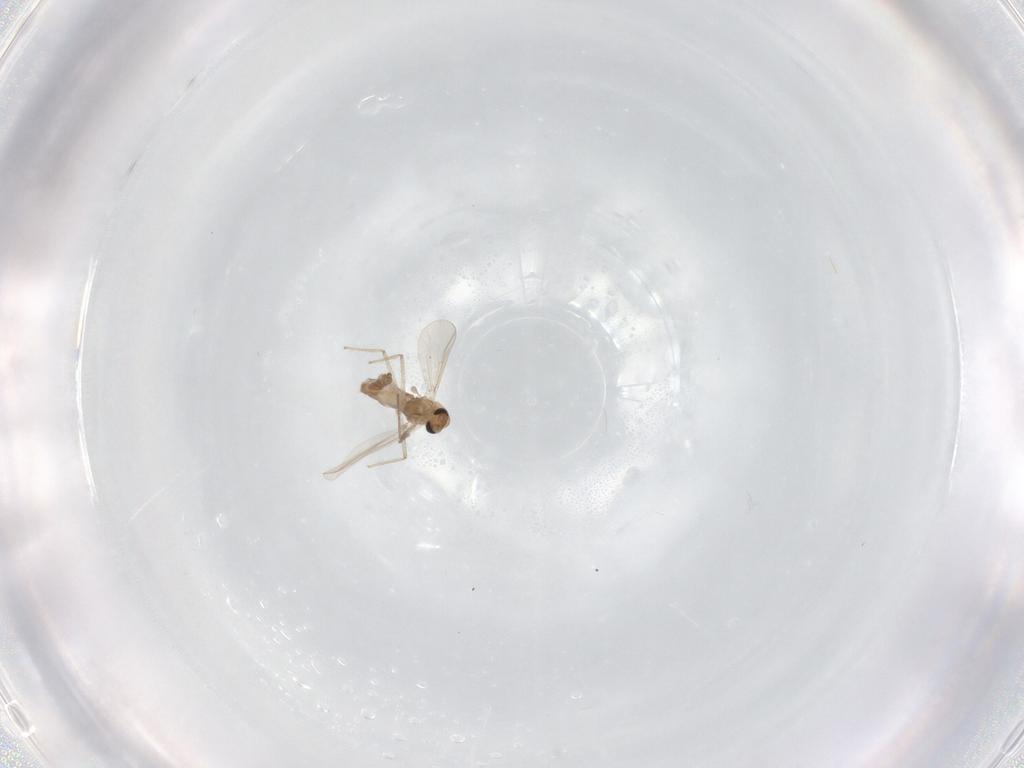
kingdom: Animalia
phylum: Arthropoda
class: Insecta
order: Diptera
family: Chironomidae
